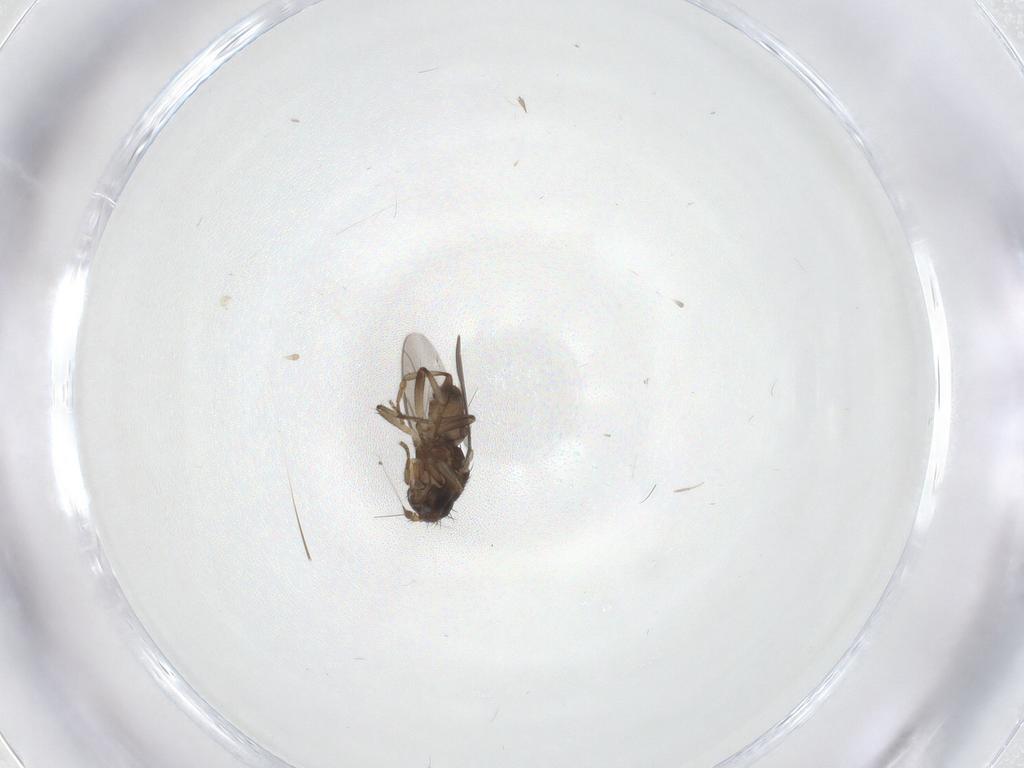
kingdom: Animalia
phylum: Arthropoda
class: Insecta
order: Diptera
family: Sphaeroceridae
